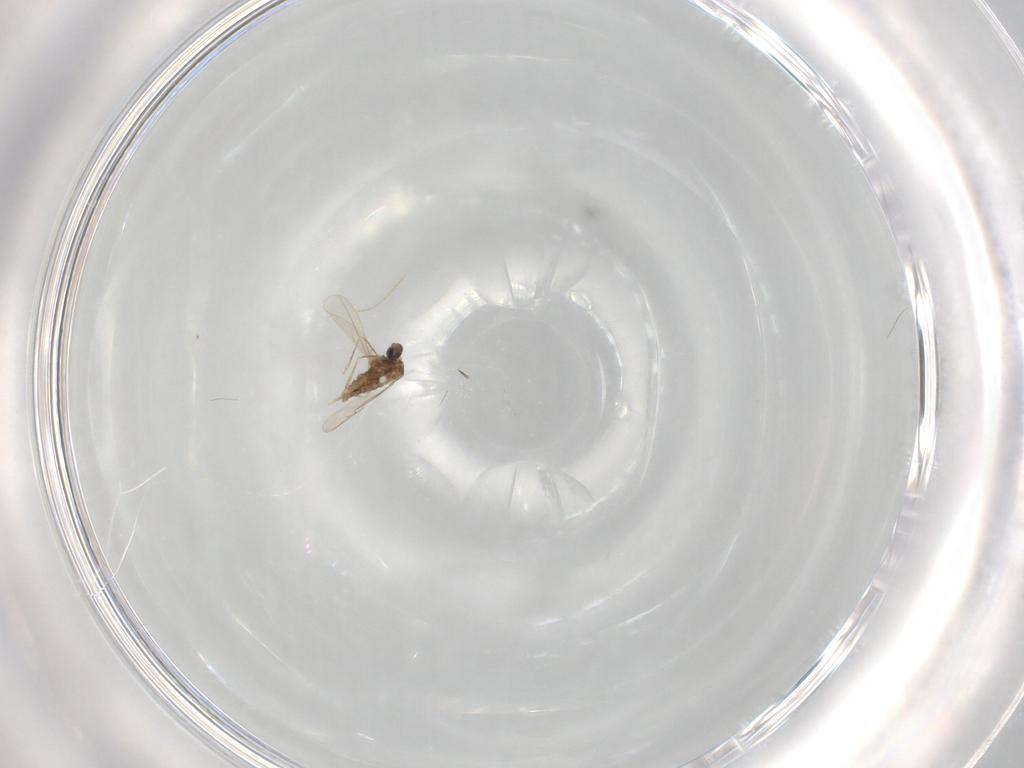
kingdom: Animalia
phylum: Arthropoda
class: Insecta
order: Diptera
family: Cecidomyiidae
